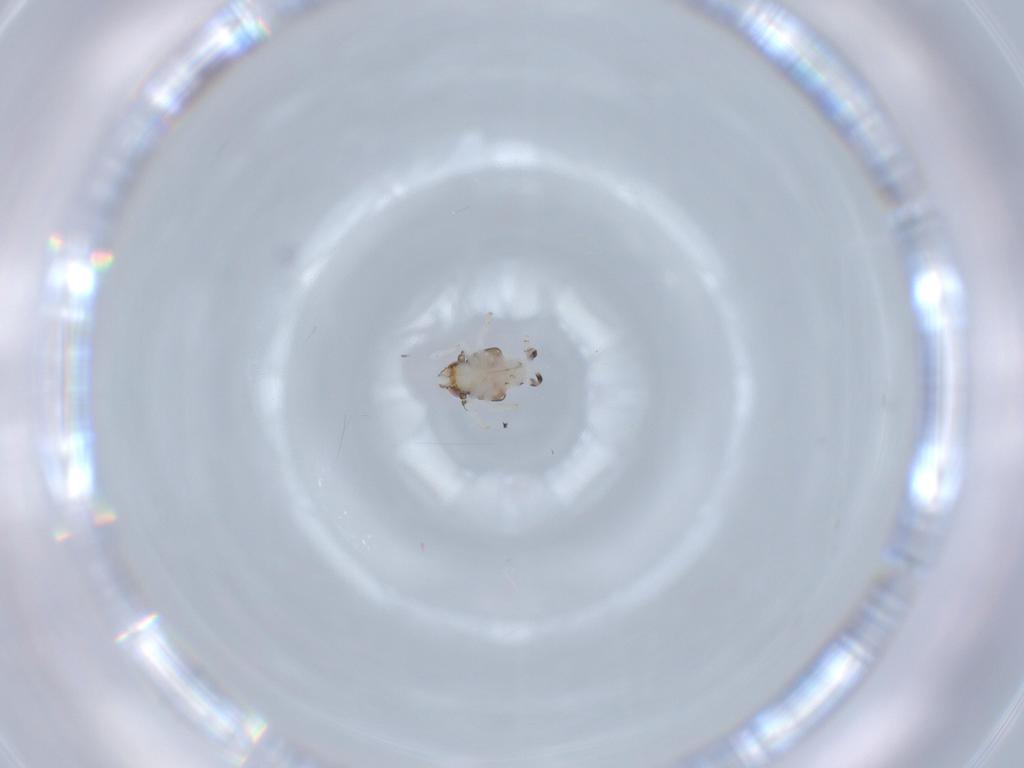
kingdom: Animalia
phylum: Arthropoda
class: Insecta
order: Hemiptera
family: Nogodinidae
